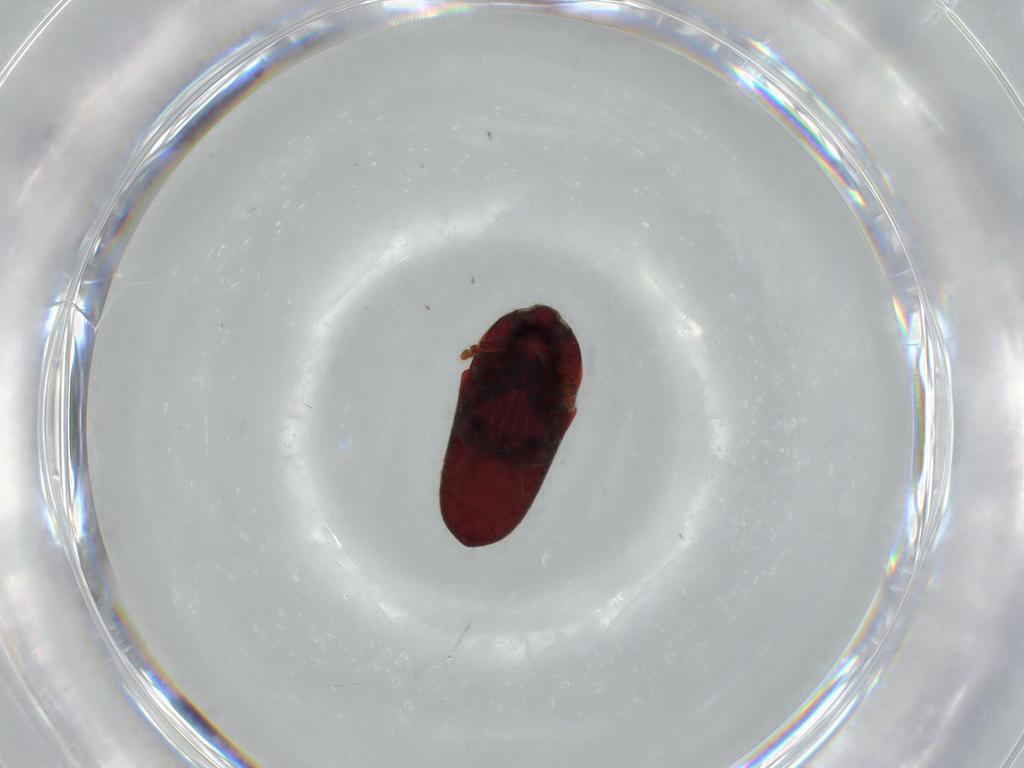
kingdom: Animalia
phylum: Arthropoda
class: Insecta
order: Coleoptera
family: Throscidae
